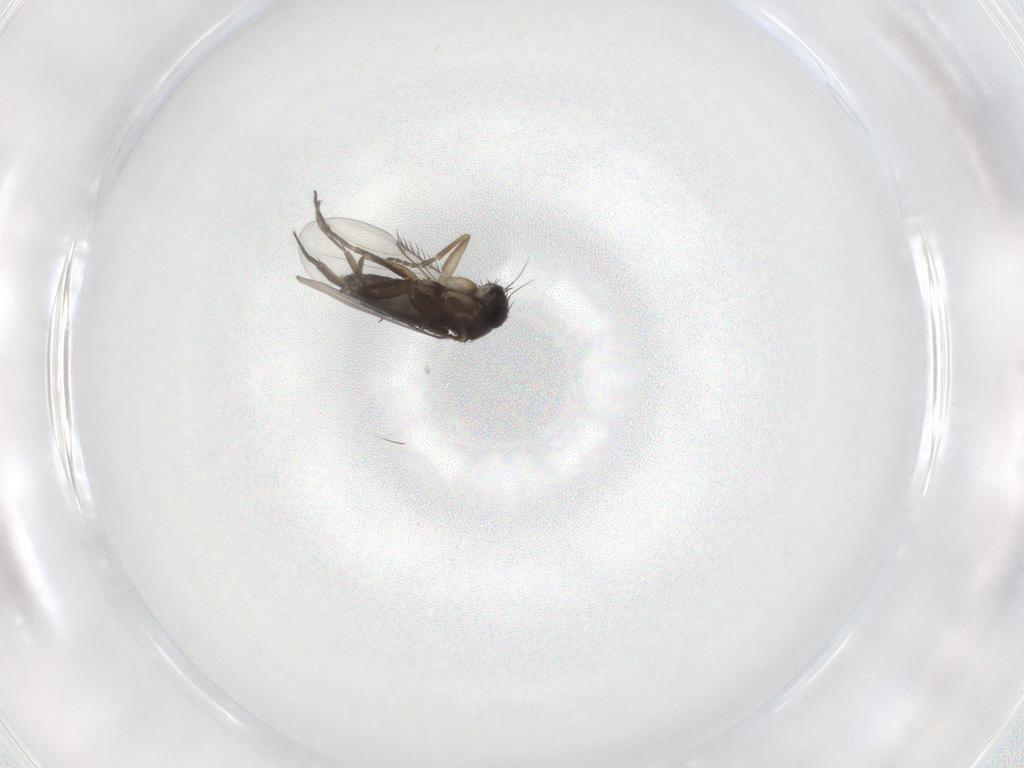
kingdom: Animalia
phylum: Arthropoda
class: Insecta
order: Diptera
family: Phoridae
